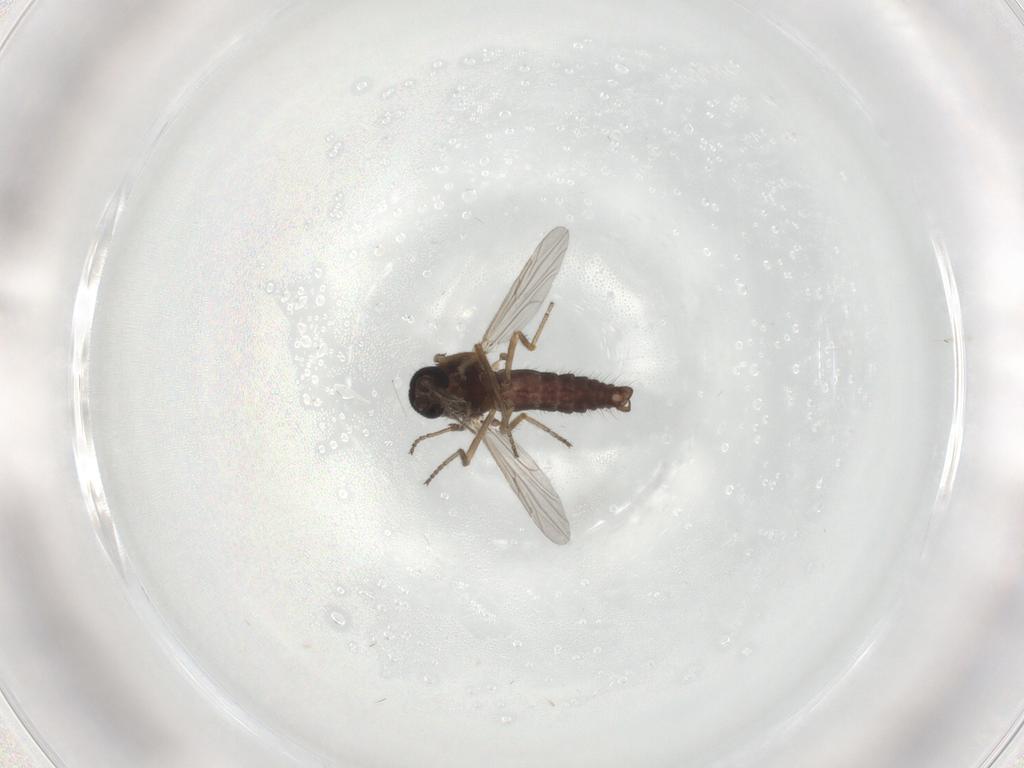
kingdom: Animalia
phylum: Arthropoda
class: Insecta
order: Diptera
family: Ceratopogonidae
